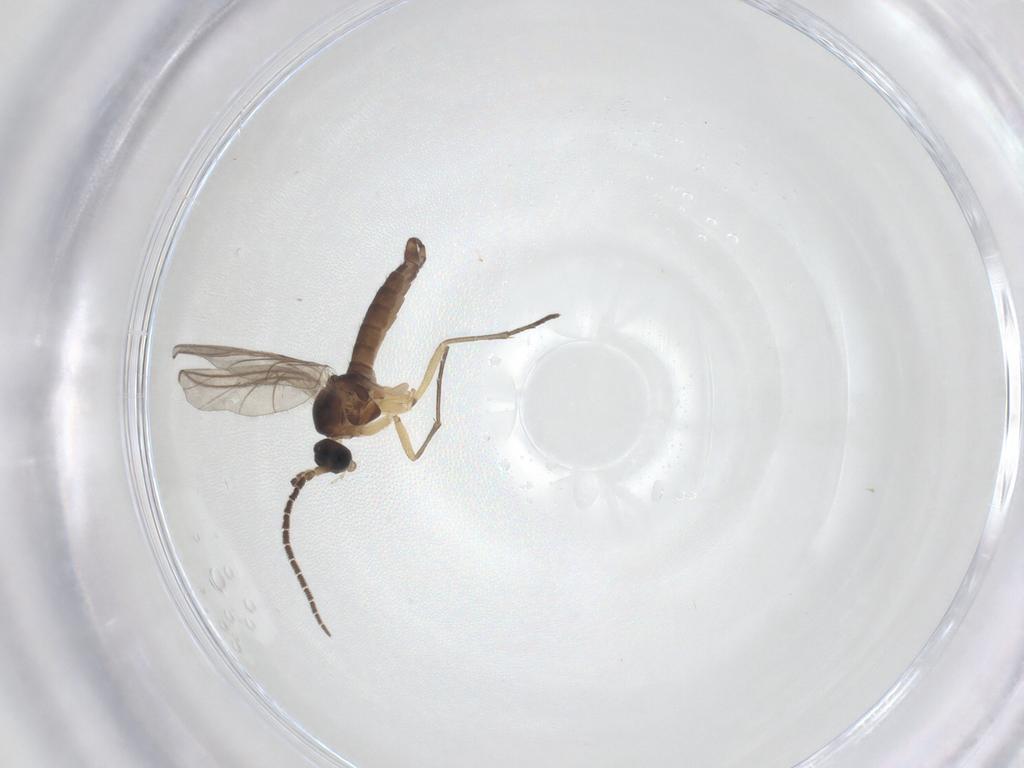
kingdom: Animalia
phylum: Arthropoda
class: Insecta
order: Diptera
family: Sciaridae
